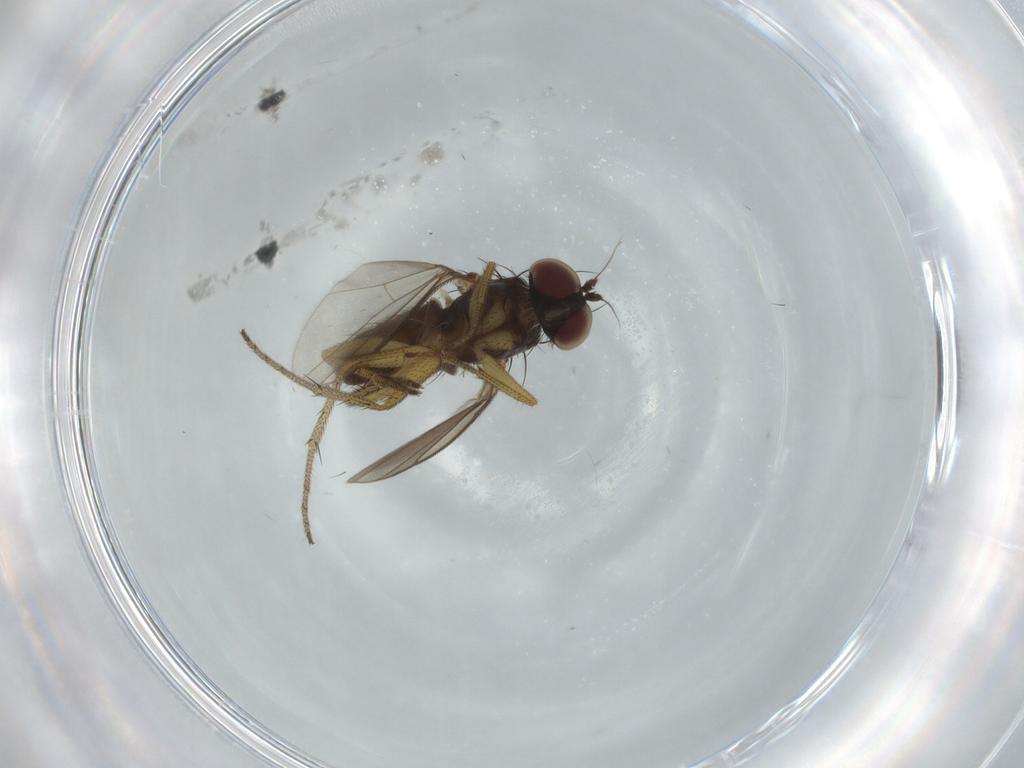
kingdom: Animalia
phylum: Arthropoda
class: Insecta
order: Diptera
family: Dolichopodidae
